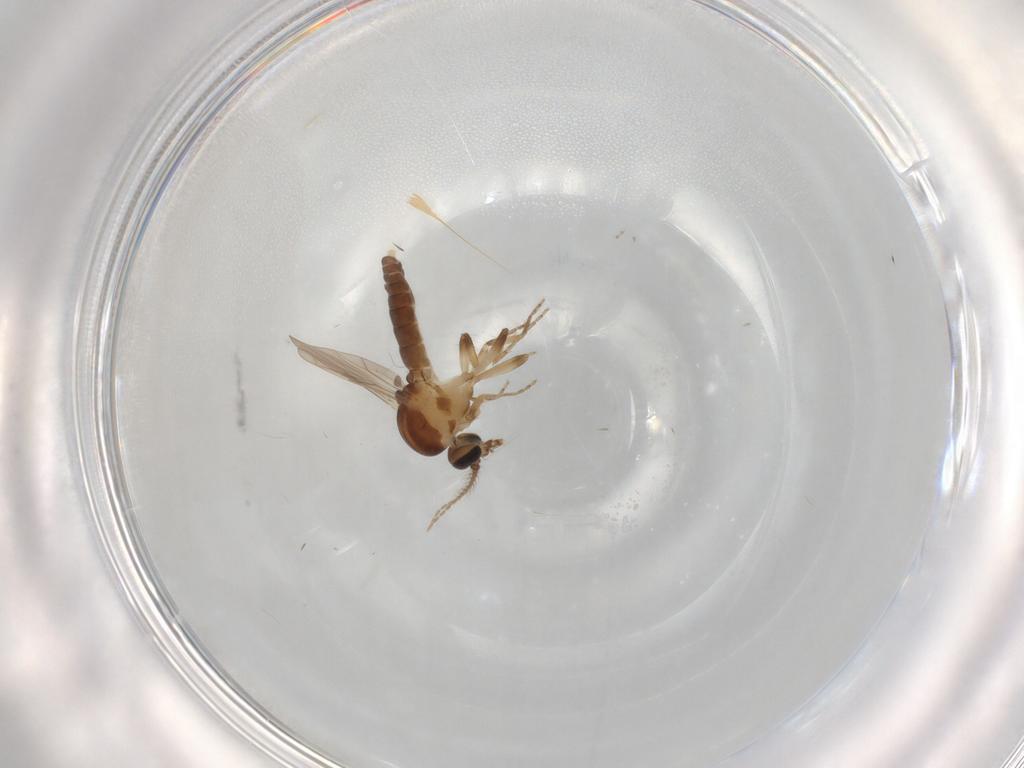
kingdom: Animalia
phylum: Arthropoda
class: Insecta
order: Diptera
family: Ceratopogonidae
